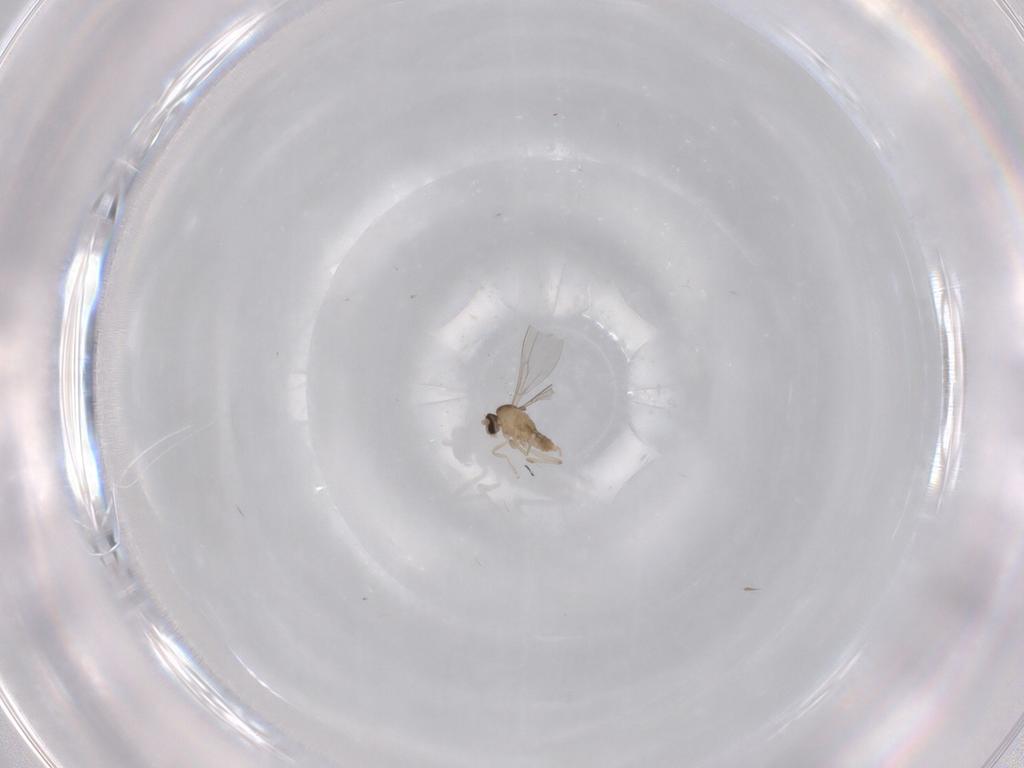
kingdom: Animalia
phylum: Arthropoda
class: Insecta
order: Diptera
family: Cecidomyiidae
